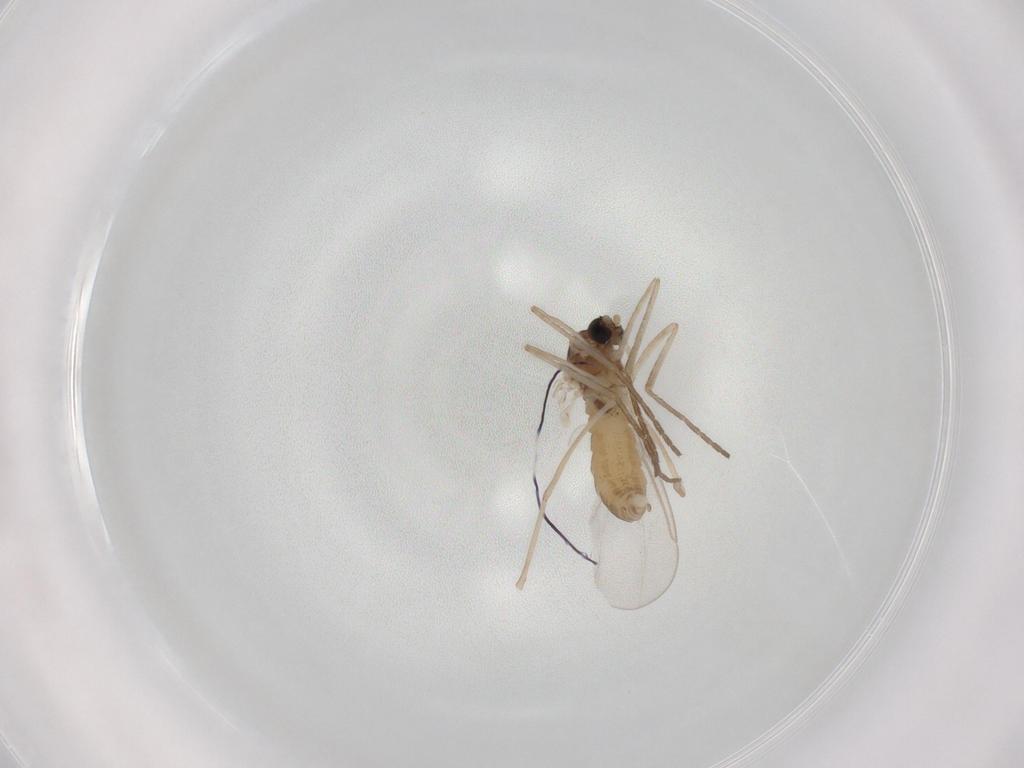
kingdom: Animalia
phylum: Arthropoda
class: Insecta
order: Diptera
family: Cecidomyiidae
